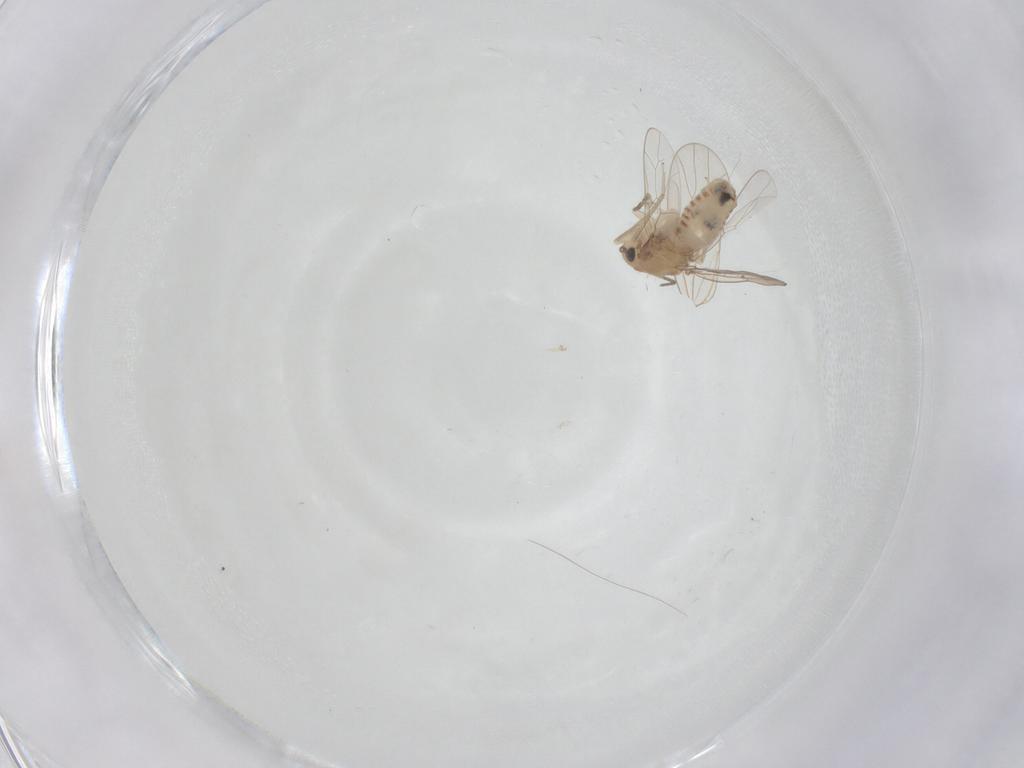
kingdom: Animalia
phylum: Arthropoda
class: Insecta
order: Psocodea
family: Ectopsocidae
